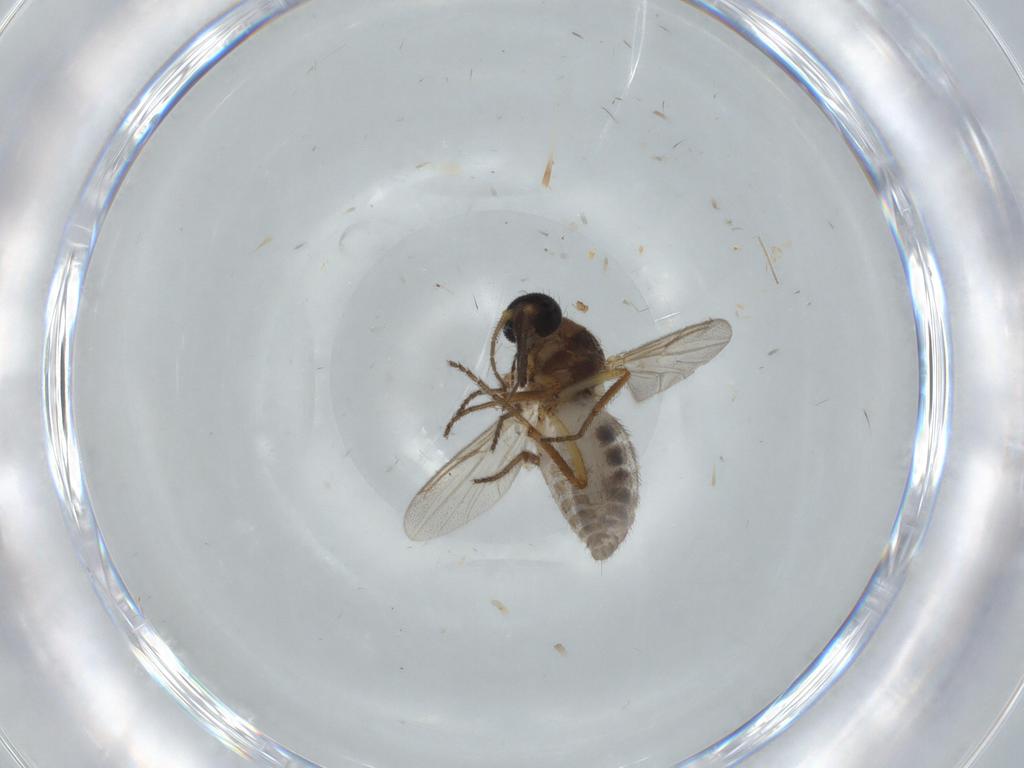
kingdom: Animalia
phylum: Arthropoda
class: Insecta
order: Diptera
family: Ceratopogonidae
